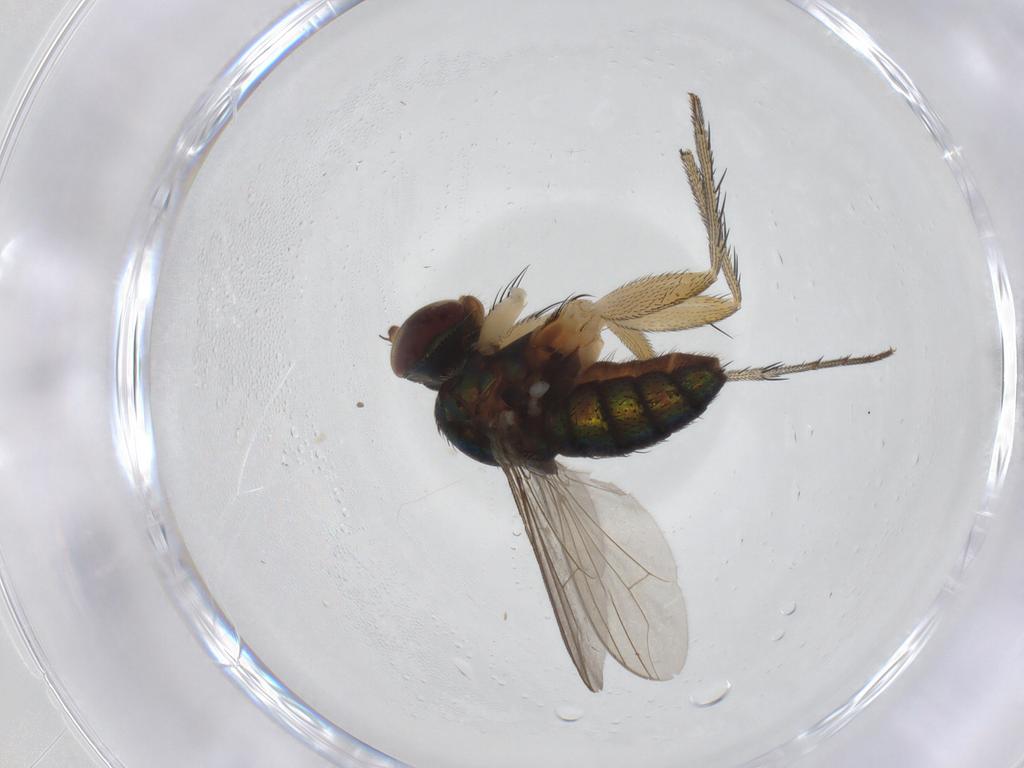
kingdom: Animalia
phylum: Arthropoda
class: Insecta
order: Diptera
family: Dolichopodidae
